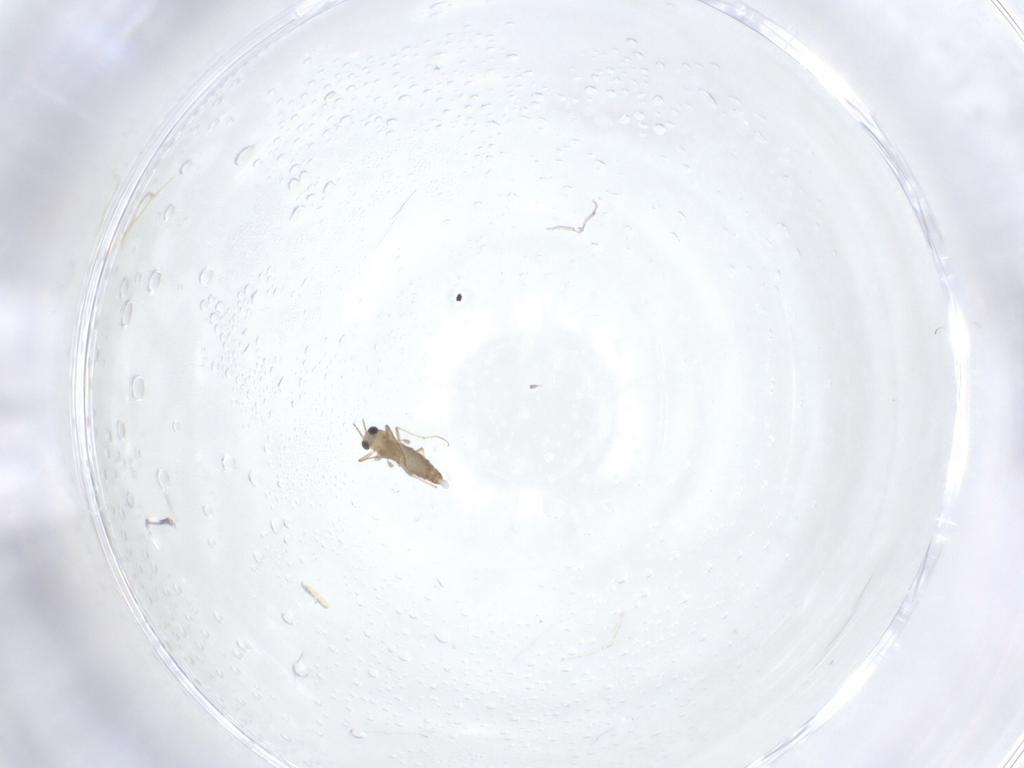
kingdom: Animalia
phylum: Arthropoda
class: Insecta
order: Diptera
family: Chironomidae
